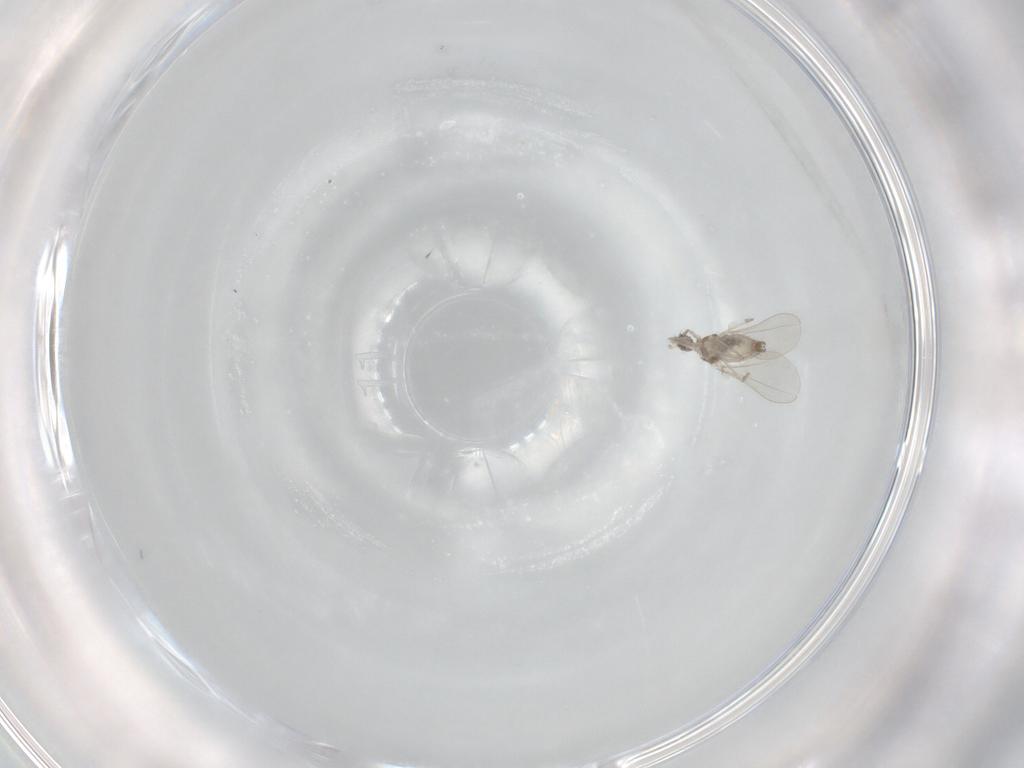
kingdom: Animalia
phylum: Arthropoda
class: Insecta
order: Diptera
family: Cecidomyiidae
